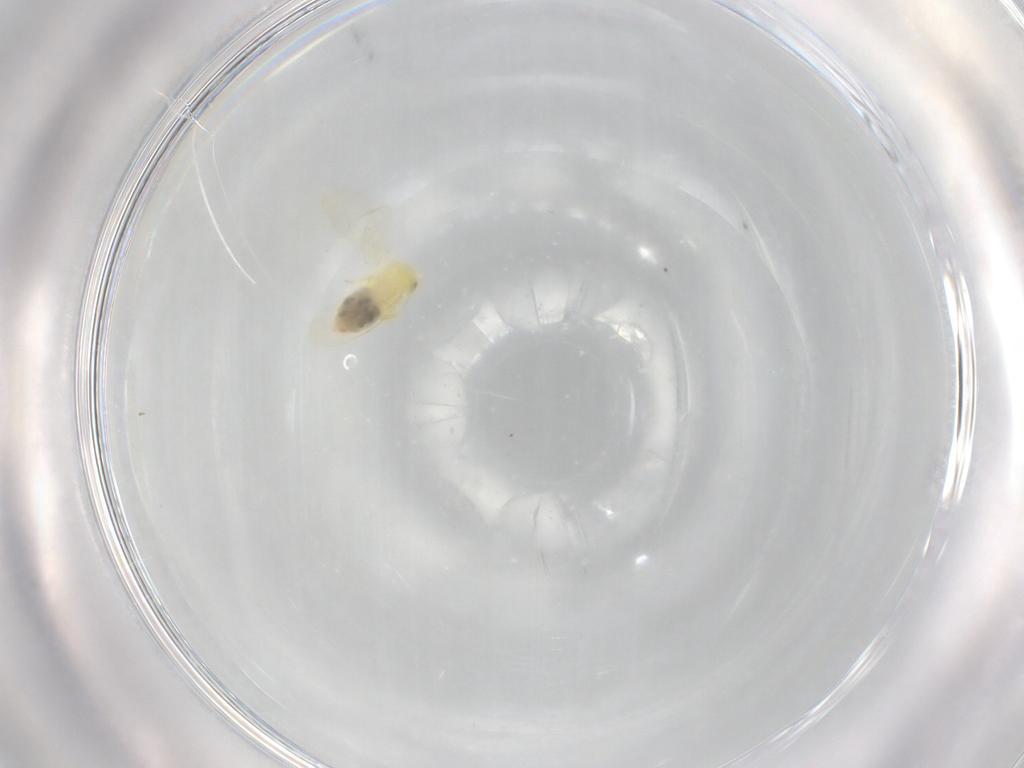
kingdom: Animalia
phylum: Arthropoda
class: Insecta
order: Hemiptera
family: Aleyrodidae
